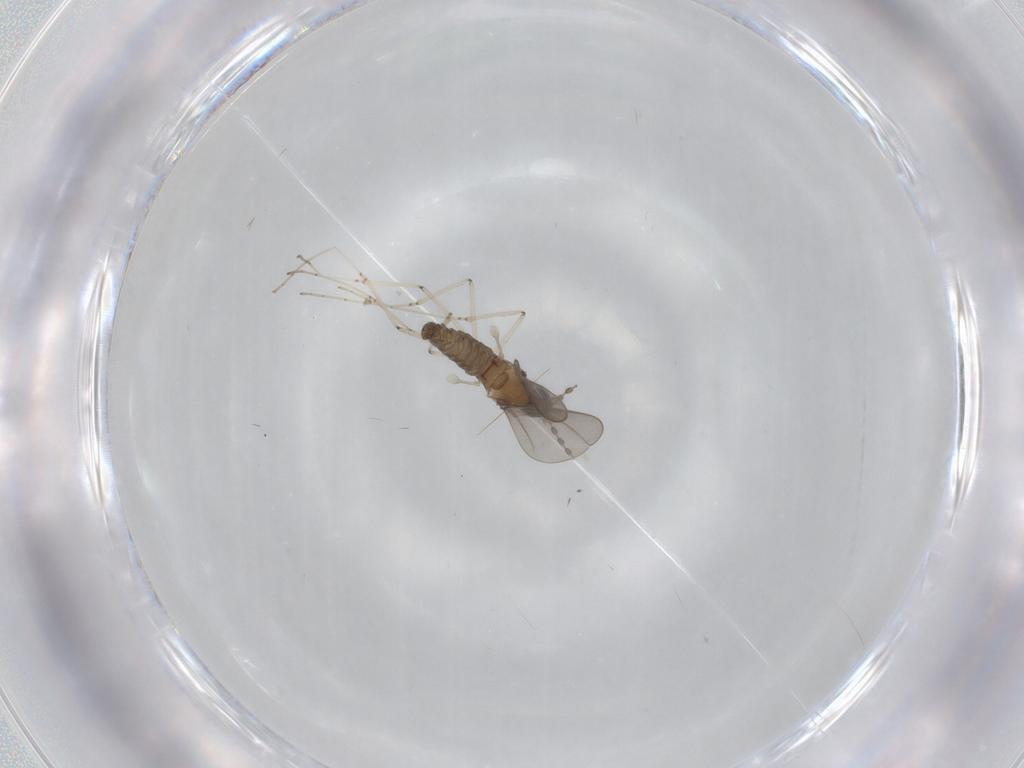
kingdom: Animalia
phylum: Arthropoda
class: Insecta
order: Diptera
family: Cecidomyiidae
